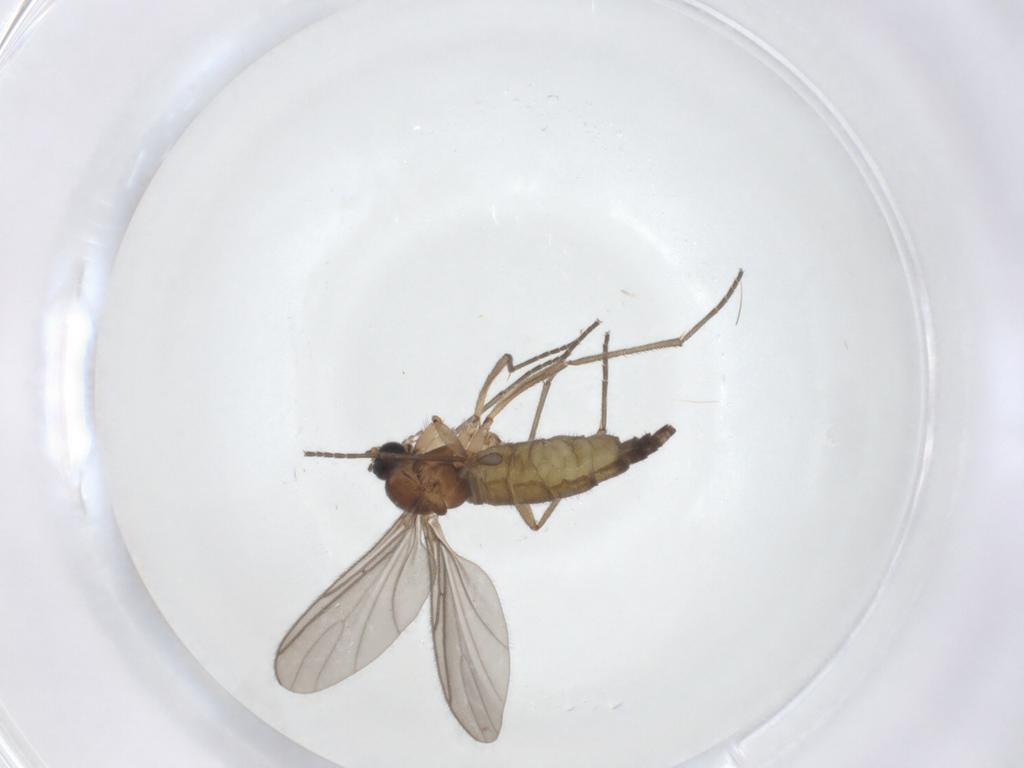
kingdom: Animalia
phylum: Arthropoda
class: Insecta
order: Diptera
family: Sciaridae
